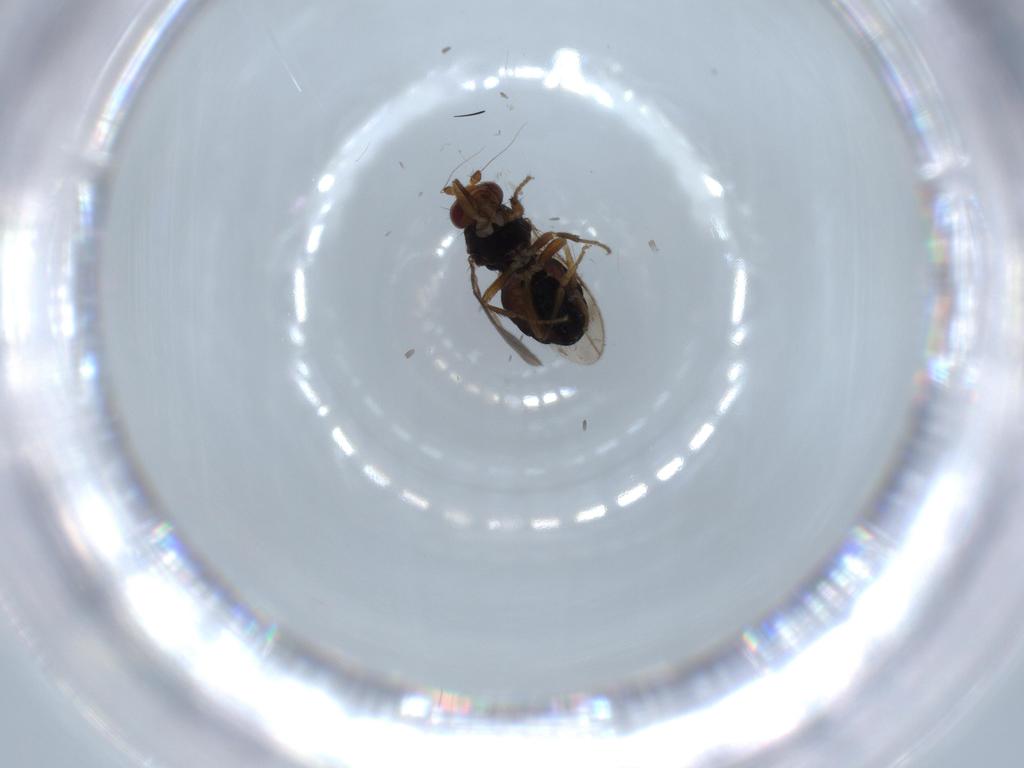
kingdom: Animalia
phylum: Arthropoda
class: Insecta
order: Diptera
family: Sphaeroceridae
